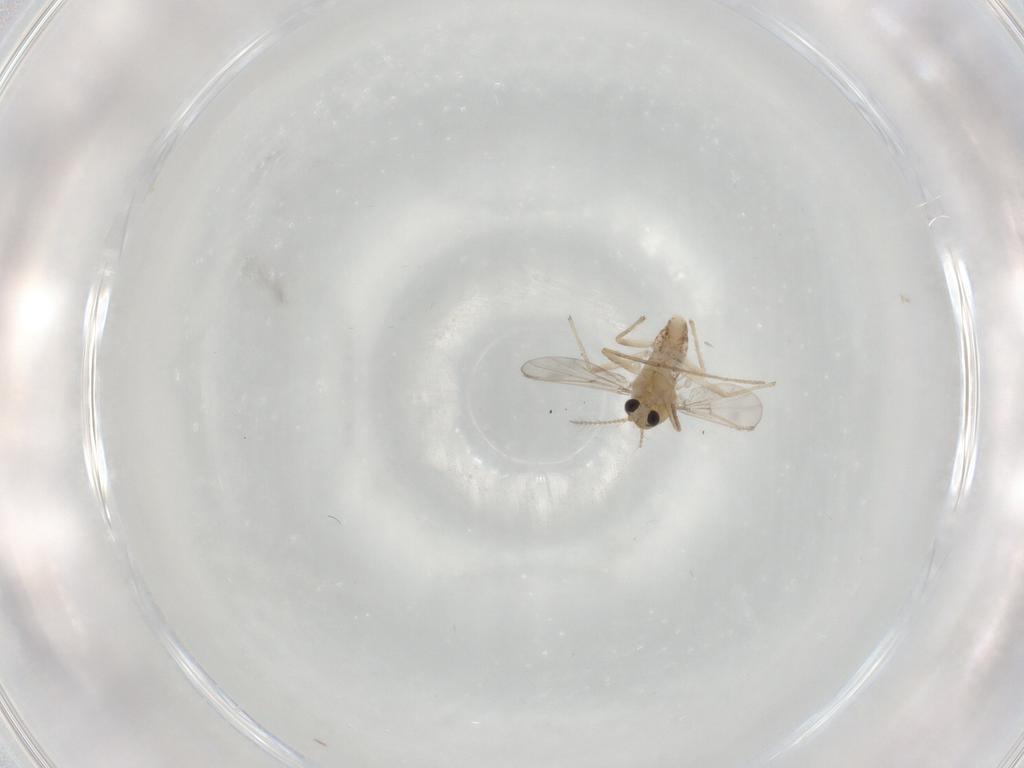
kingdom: Animalia
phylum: Arthropoda
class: Insecta
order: Diptera
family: Chironomidae
